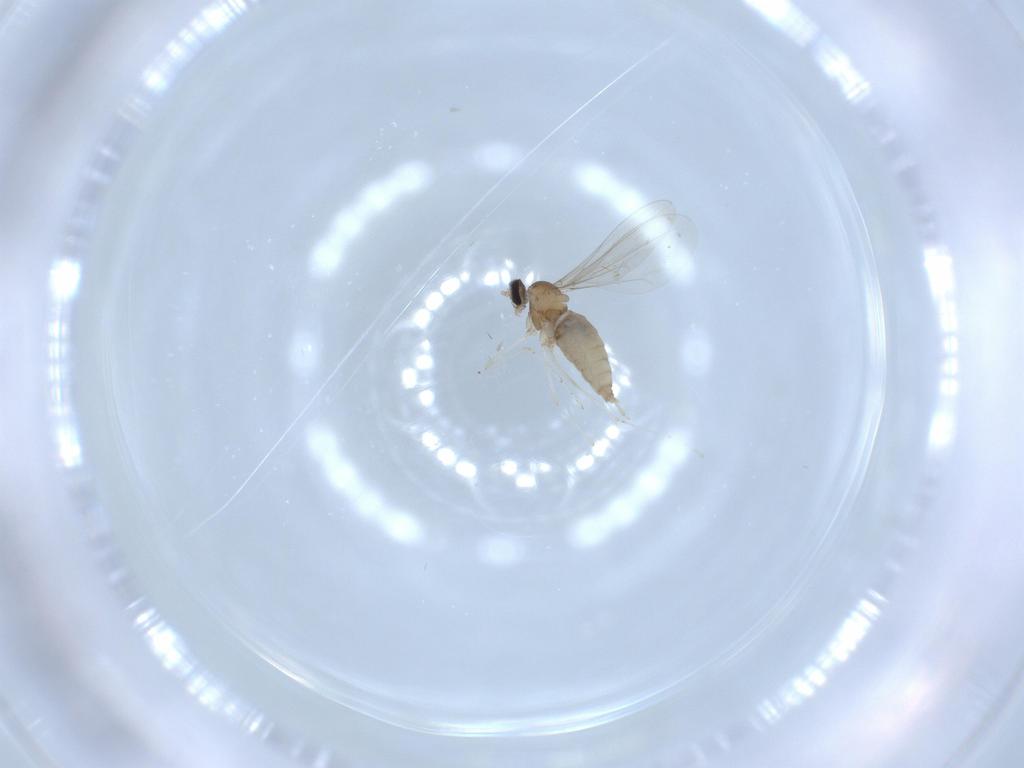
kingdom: Animalia
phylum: Arthropoda
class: Insecta
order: Diptera
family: Cecidomyiidae
